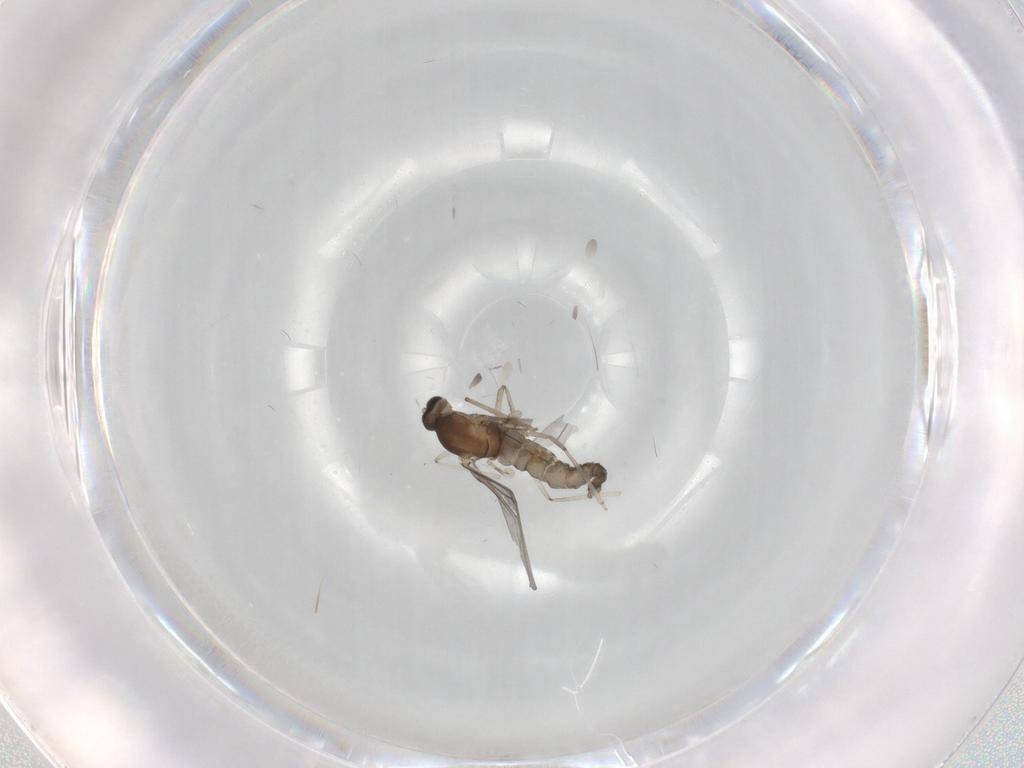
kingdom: Animalia
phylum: Arthropoda
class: Insecta
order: Diptera
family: Cecidomyiidae
